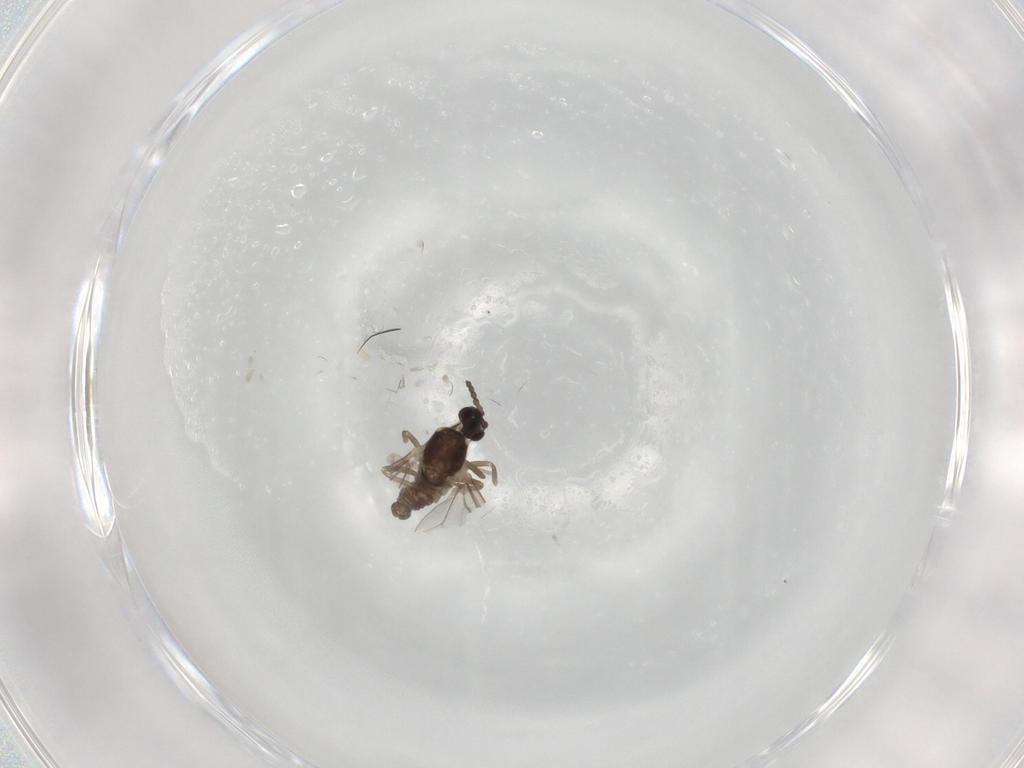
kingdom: Animalia
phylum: Arthropoda
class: Insecta
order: Diptera
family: Cecidomyiidae
